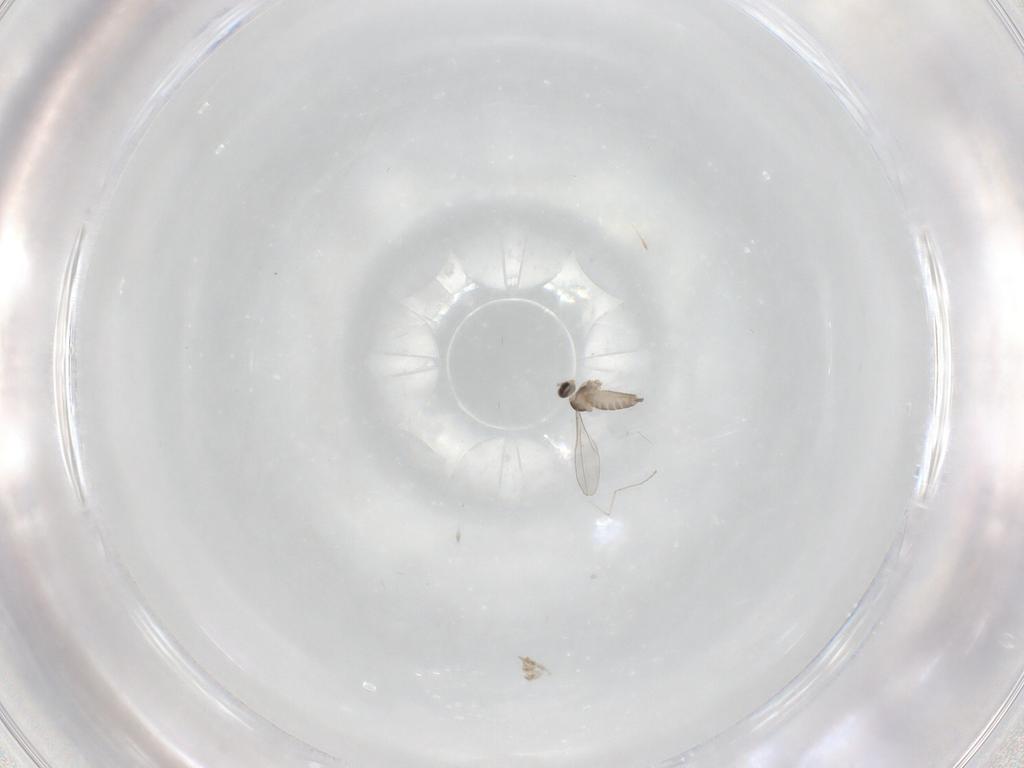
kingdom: Animalia
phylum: Arthropoda
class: Insecta
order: Diptera
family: Cecidomyiidae
